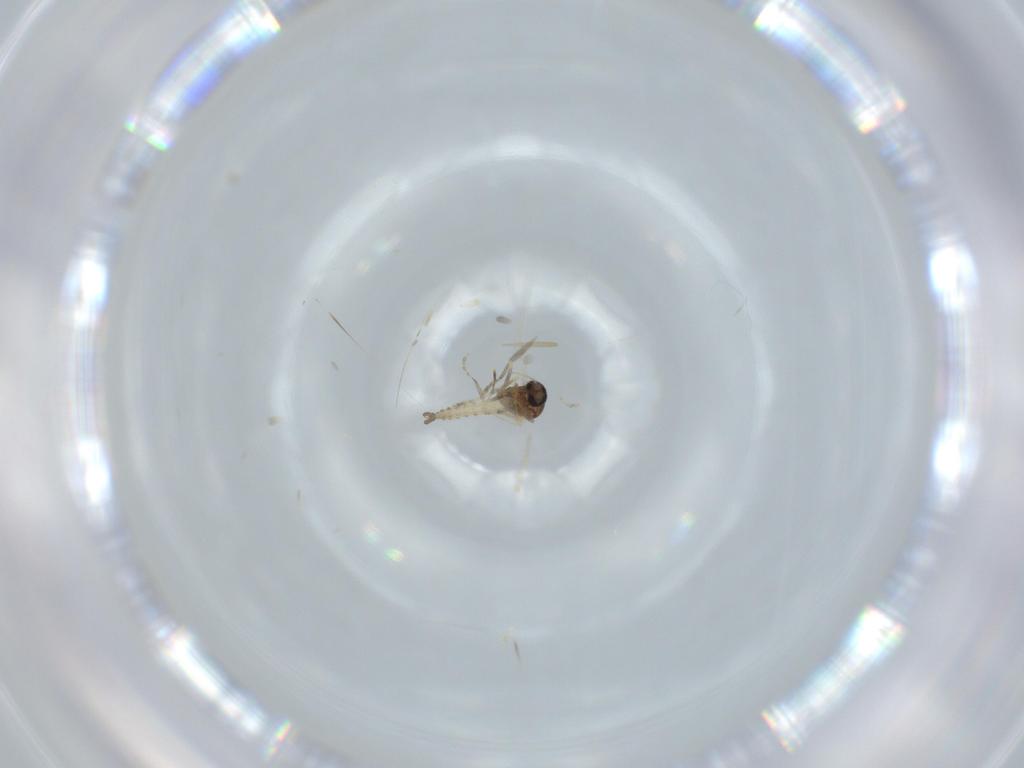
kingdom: Animalia
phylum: Arthropoda
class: Insecta
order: Diptera
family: Ceratopogonidae
